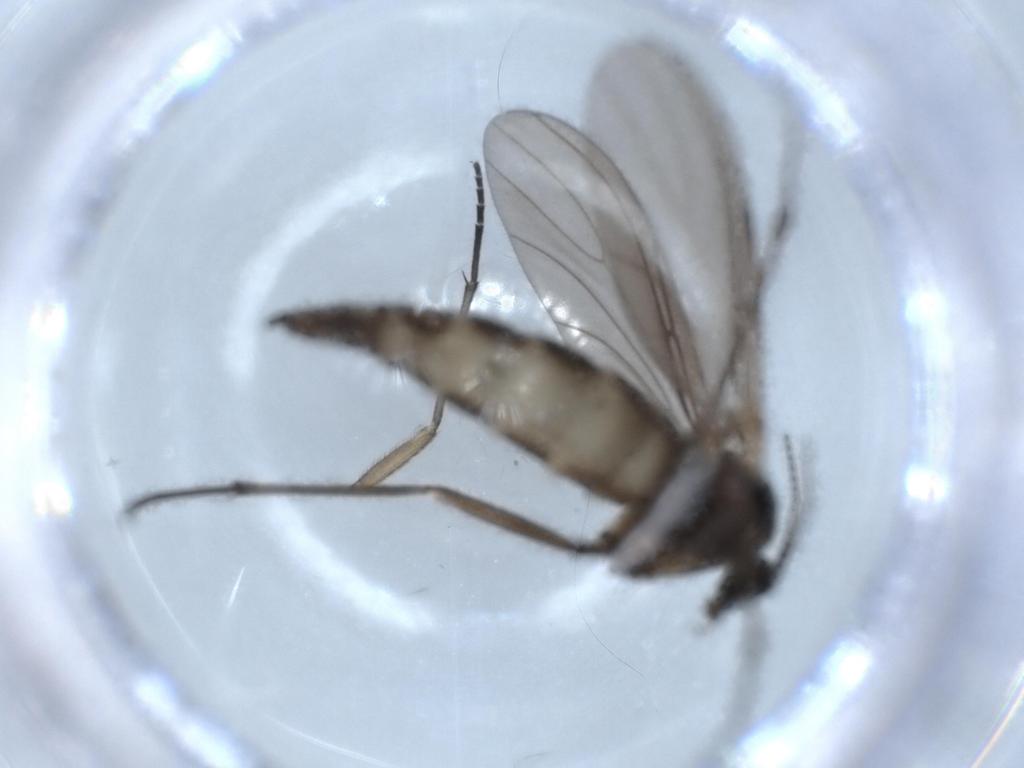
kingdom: Animalia
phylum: Arthropoda
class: Insecta
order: Diptera
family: Sciaridae
